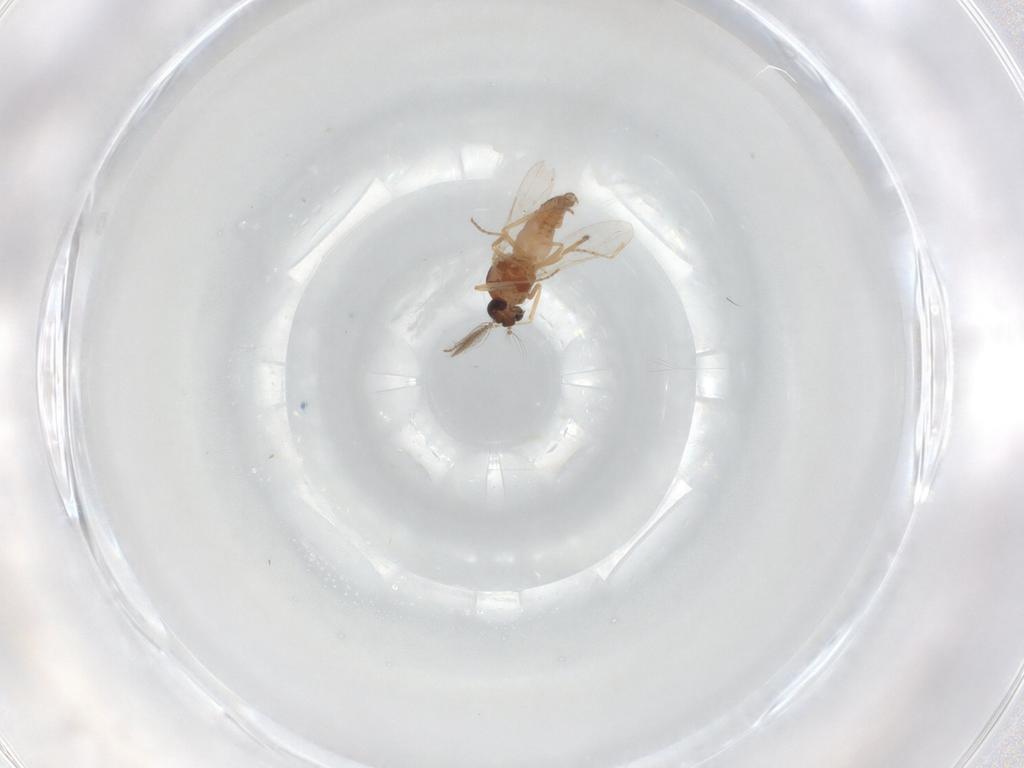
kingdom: Animalia
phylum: Arthropoda
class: Insecta
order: Diptera
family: Ceratopogonidae
